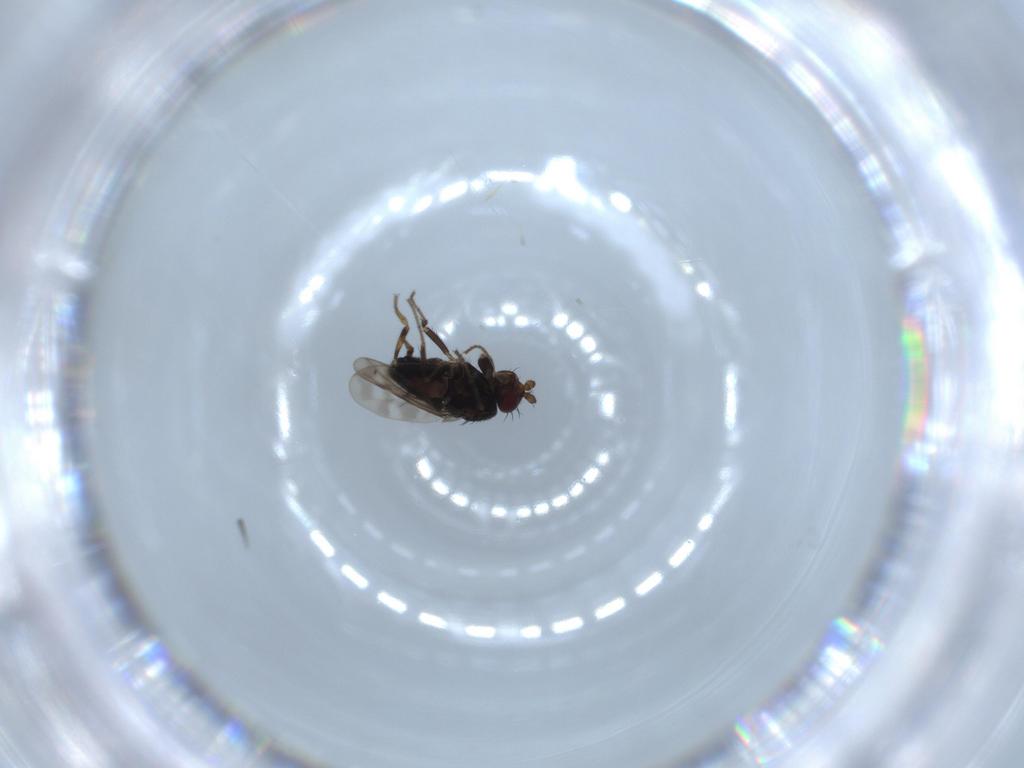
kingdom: Animalia
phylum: Arthropoda
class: Insecta
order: Diptera
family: Sphaeroceridae
